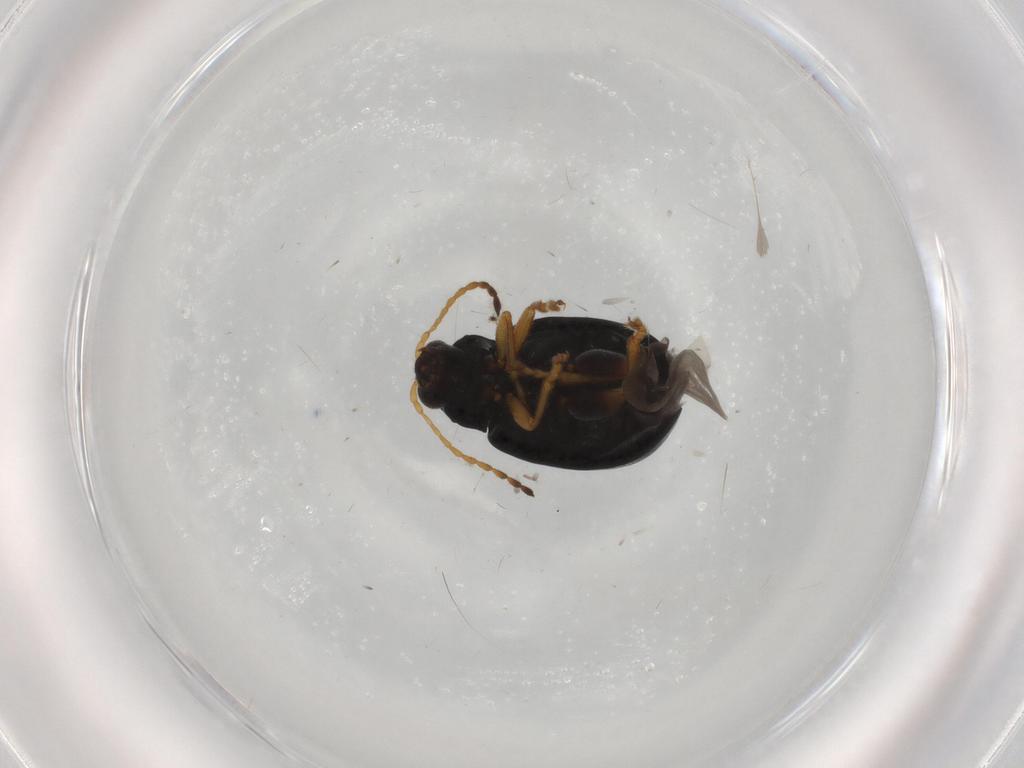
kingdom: Animalia
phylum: Arthropoda
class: Insecta
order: Coleoptera
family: Chrysomelidae
